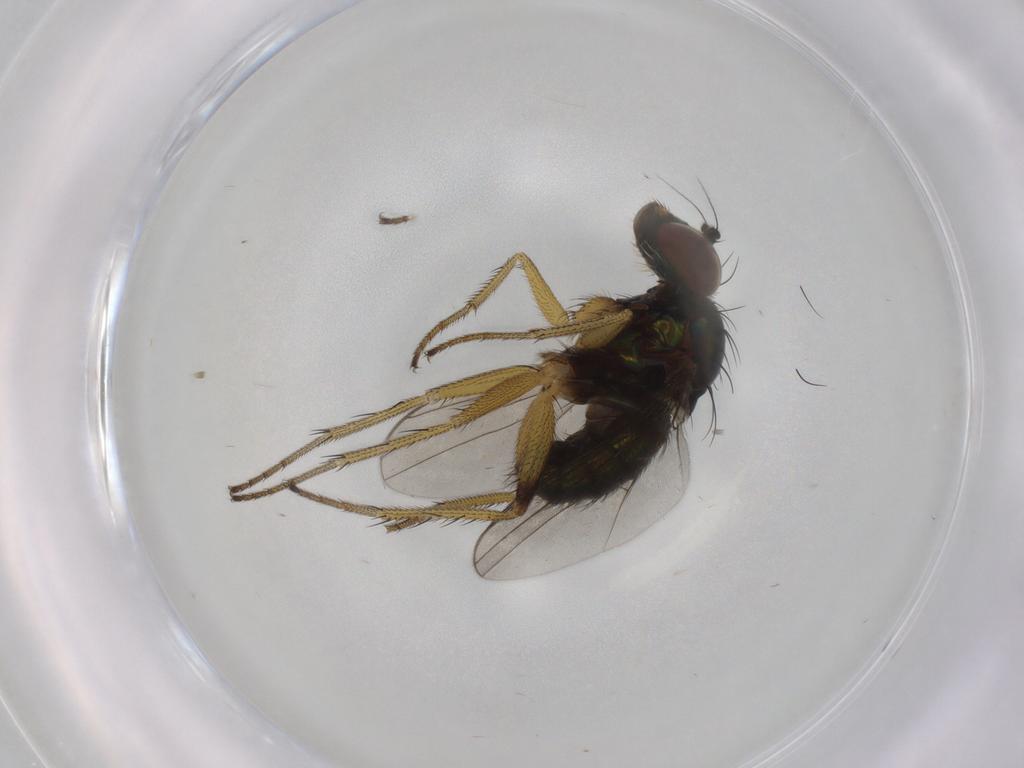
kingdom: Animalia
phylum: Arthropoda
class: Insecta
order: Diptera
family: Dolichopodidae
